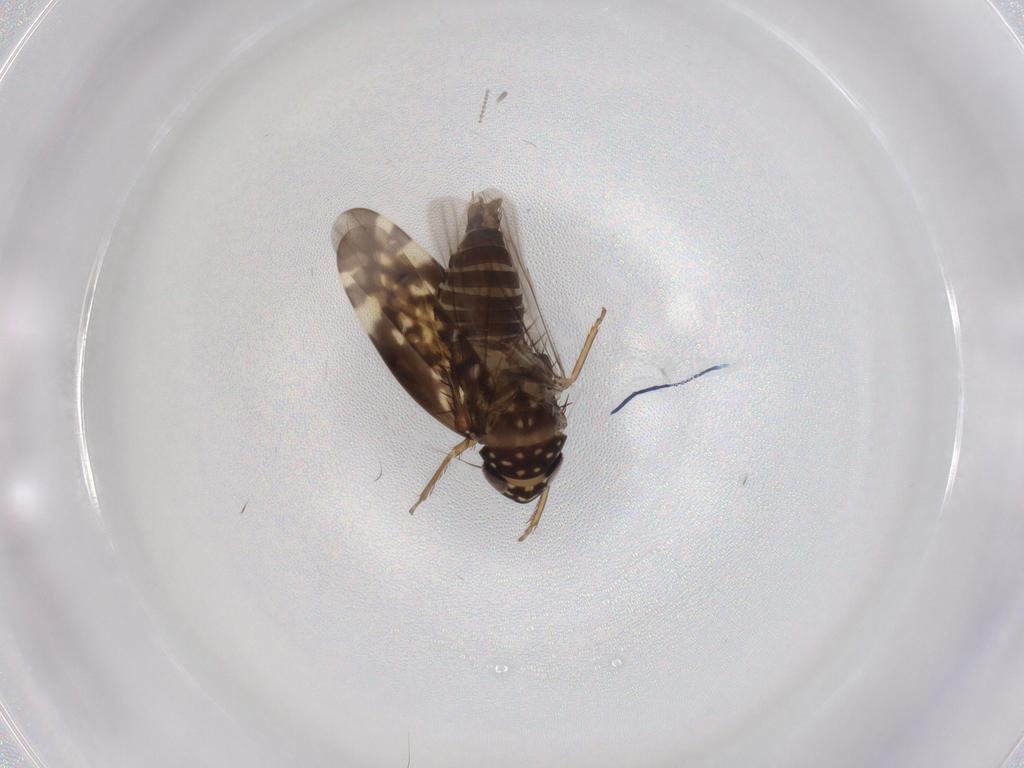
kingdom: Animalia
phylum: Arthropoda
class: Insecta
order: Hemiptera
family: Cicadellidae
